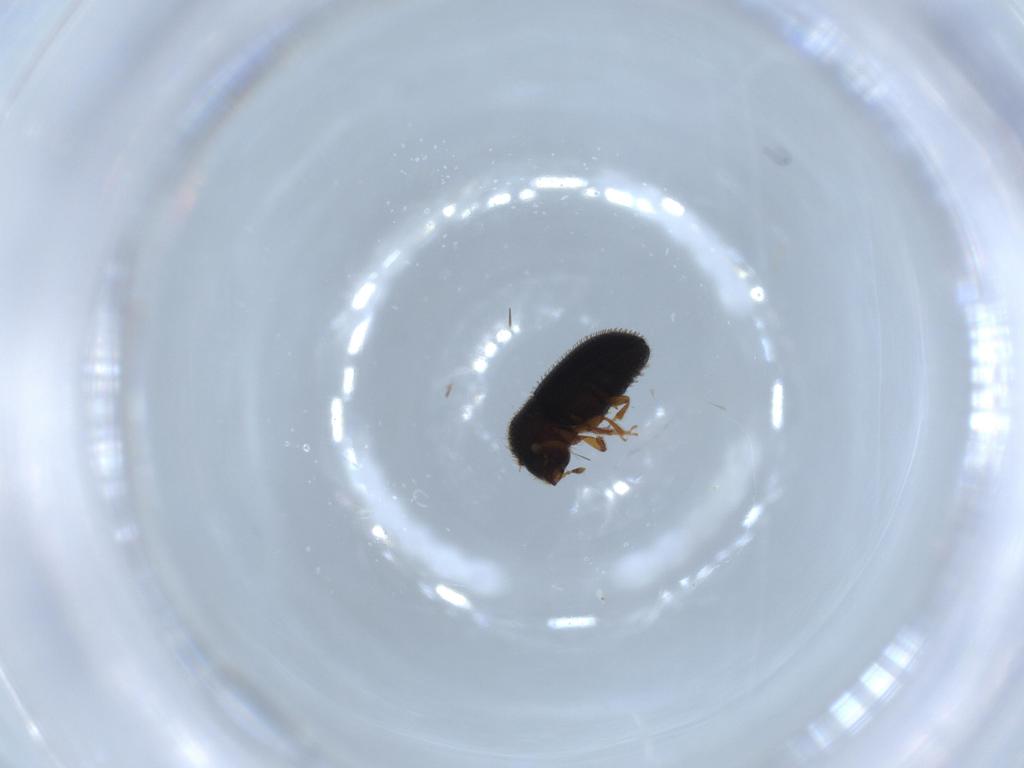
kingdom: Animalia
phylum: Arthropoda
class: Insecta
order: Coleoptera
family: Curculionidae
